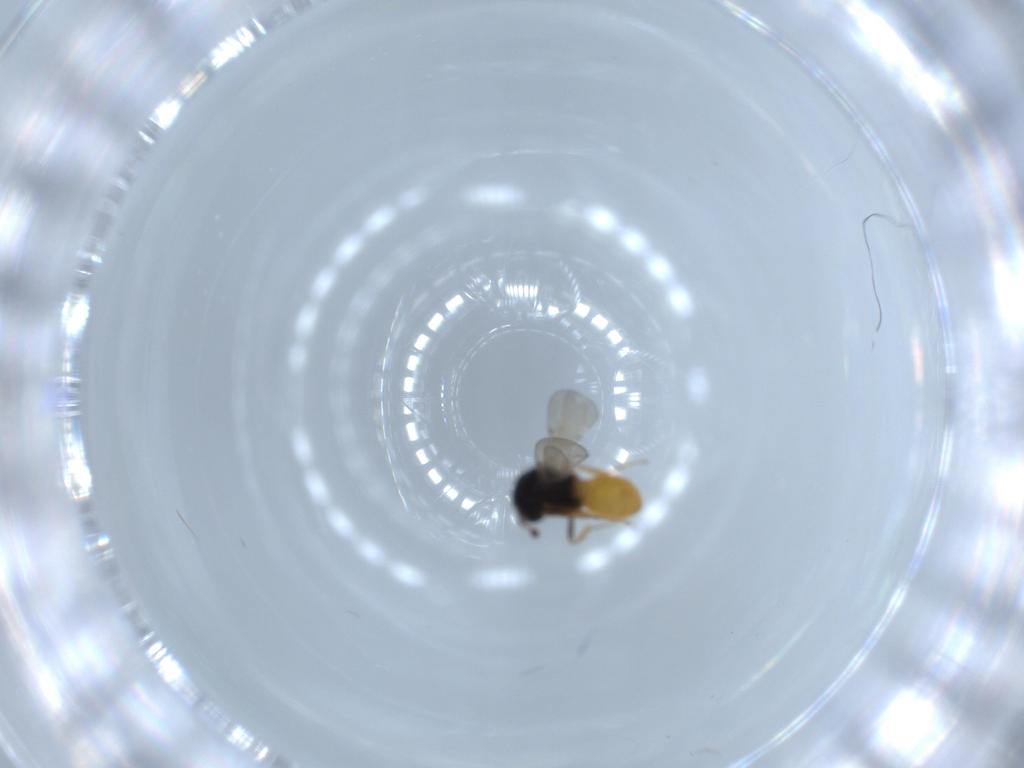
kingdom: Animalia
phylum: Arthropoda
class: Insecta
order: Hymenoptera
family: Scelionidae
